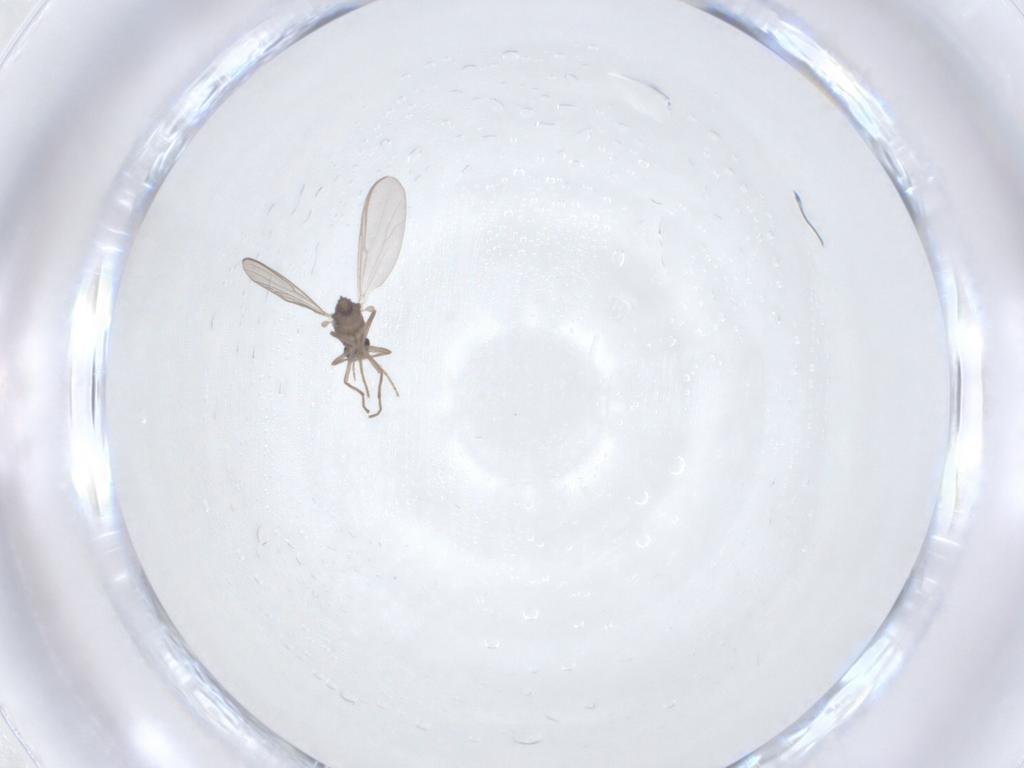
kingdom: Animalia
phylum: Arthropoda
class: Insecta
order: Diptera
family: Chironomidae
